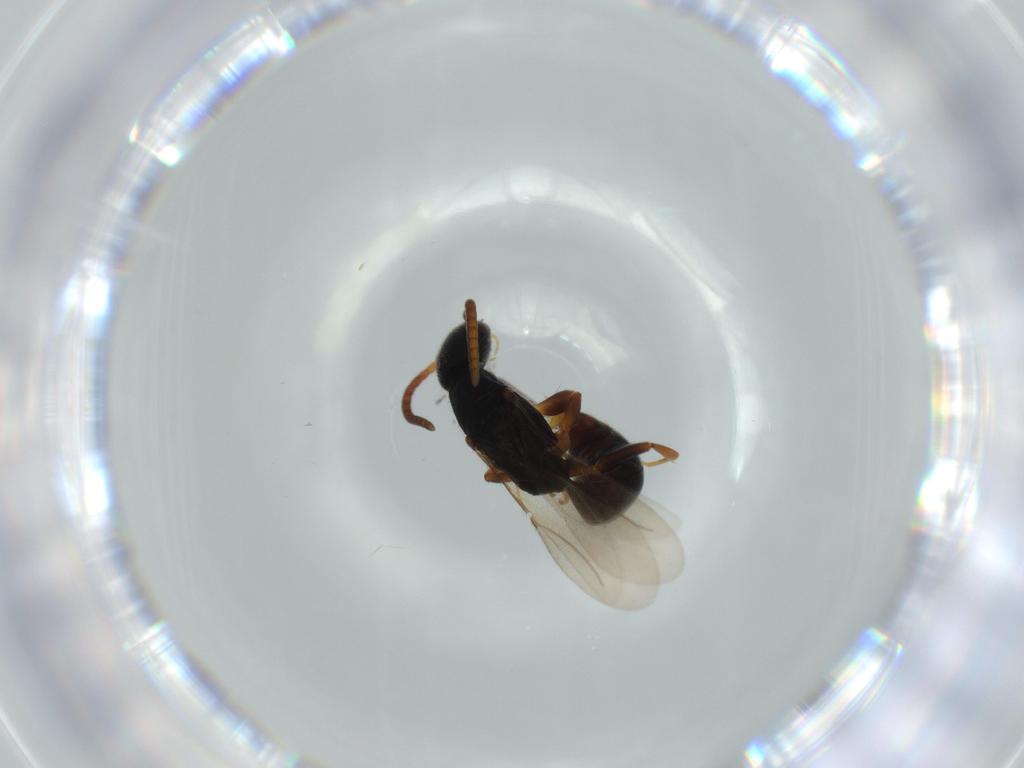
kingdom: Animalia
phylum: Arthropoda
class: Insecta
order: Hymenoptera
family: Bethylidae
